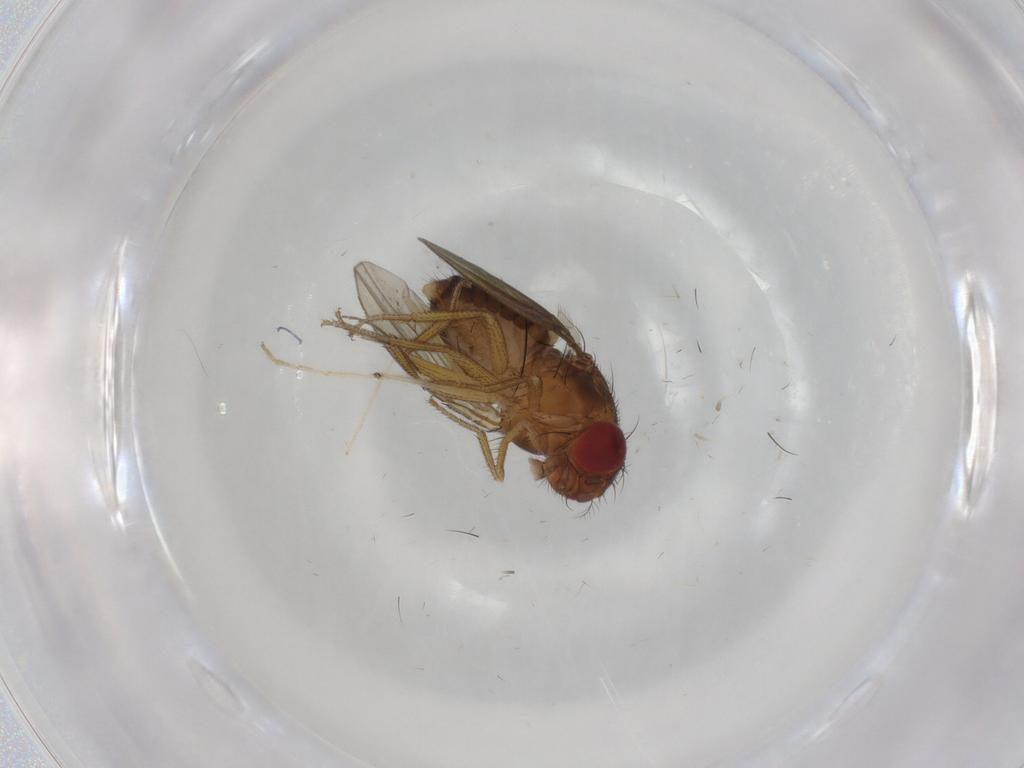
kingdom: Animalia
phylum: Arthropoda
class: Insecta
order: Diptera
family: Drosophilidae
